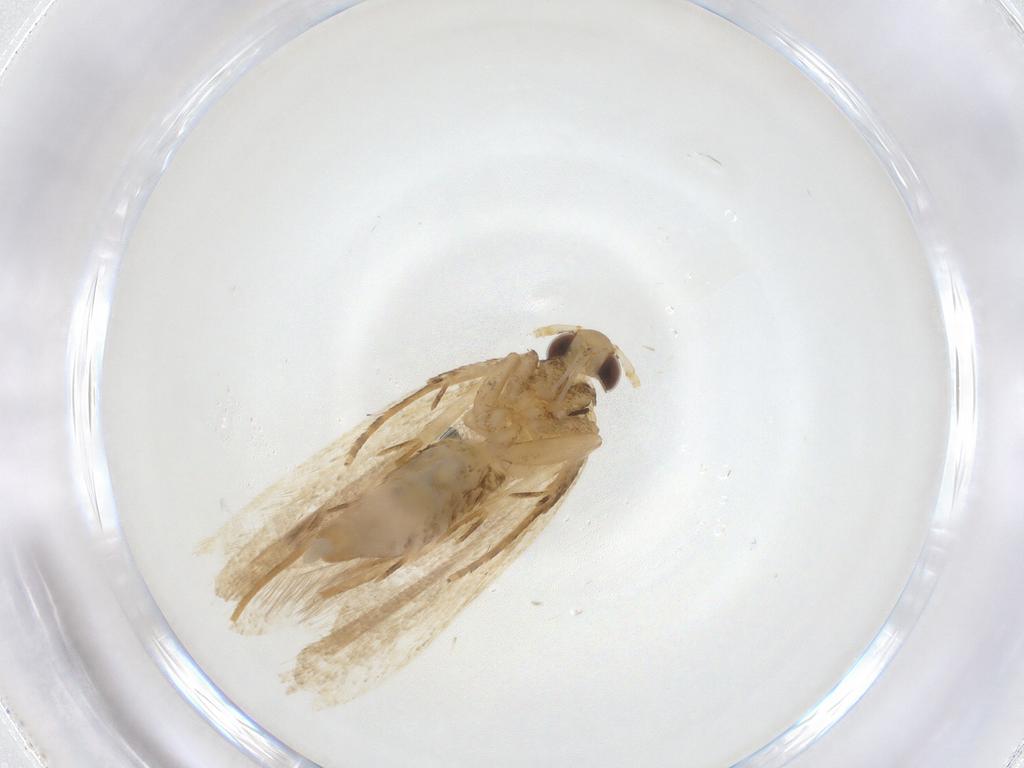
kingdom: Animalia
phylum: Arthropoda
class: Insecta
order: Lepidoptera
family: Lecithoceridae
